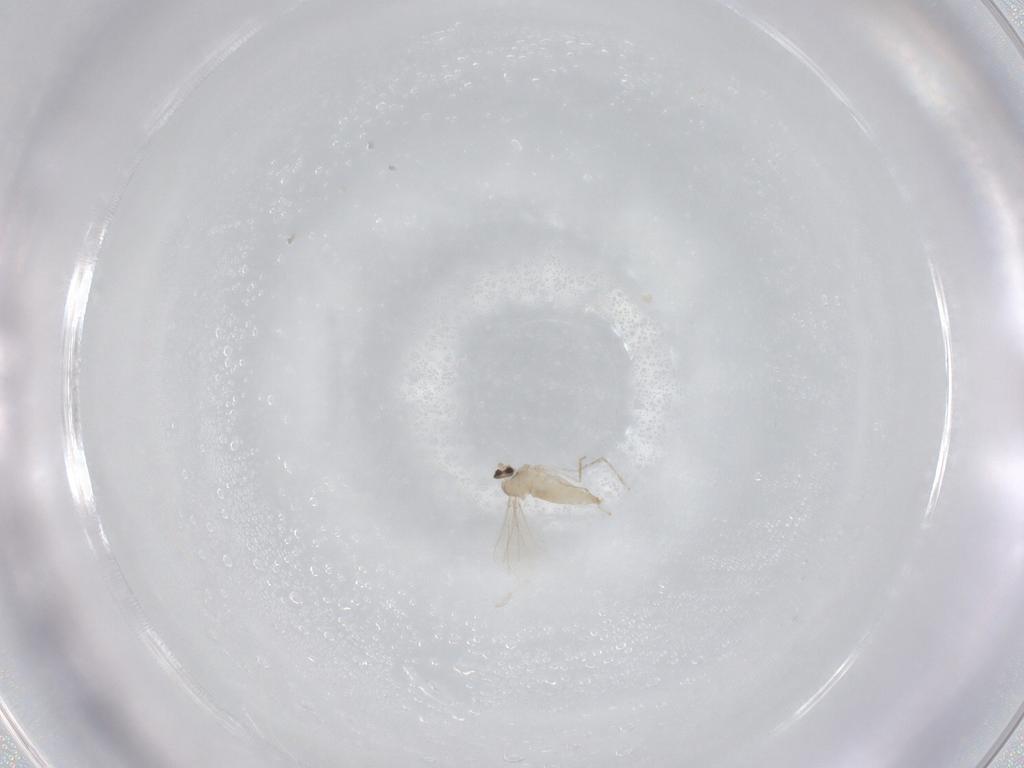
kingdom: Animalia
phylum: Arthropoda
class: Insecta
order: Diptera
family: Cecidomyiidae
